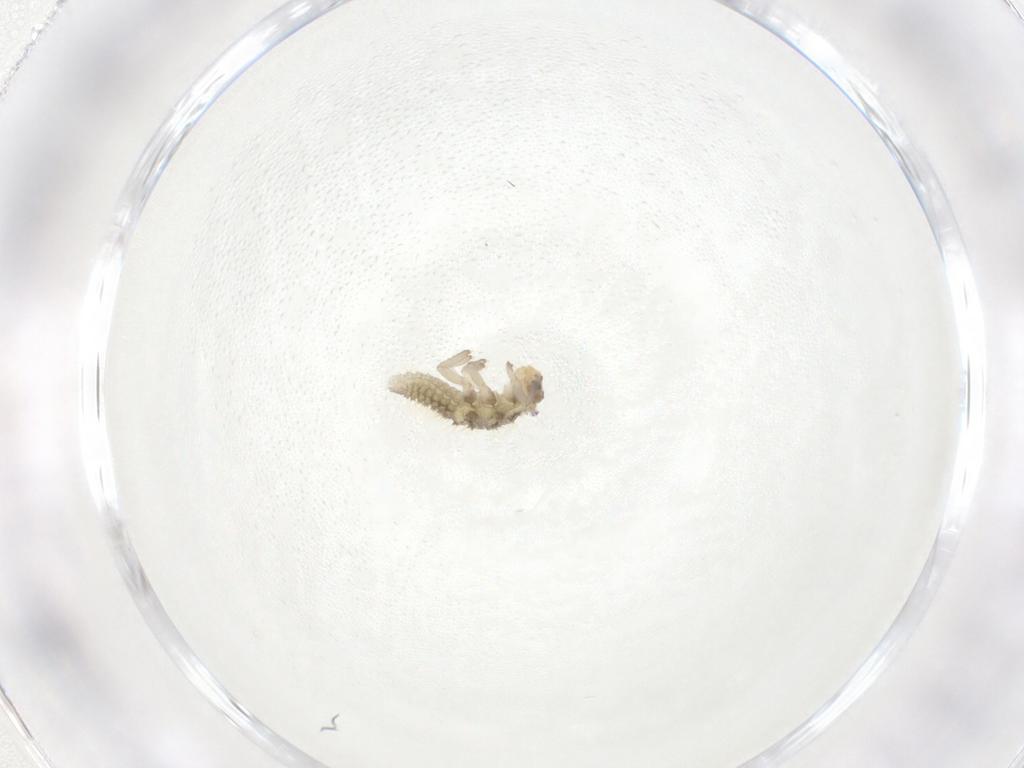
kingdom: Animalia
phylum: Arthropoda
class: Insecta
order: Coleoptera
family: Coccinellidae
